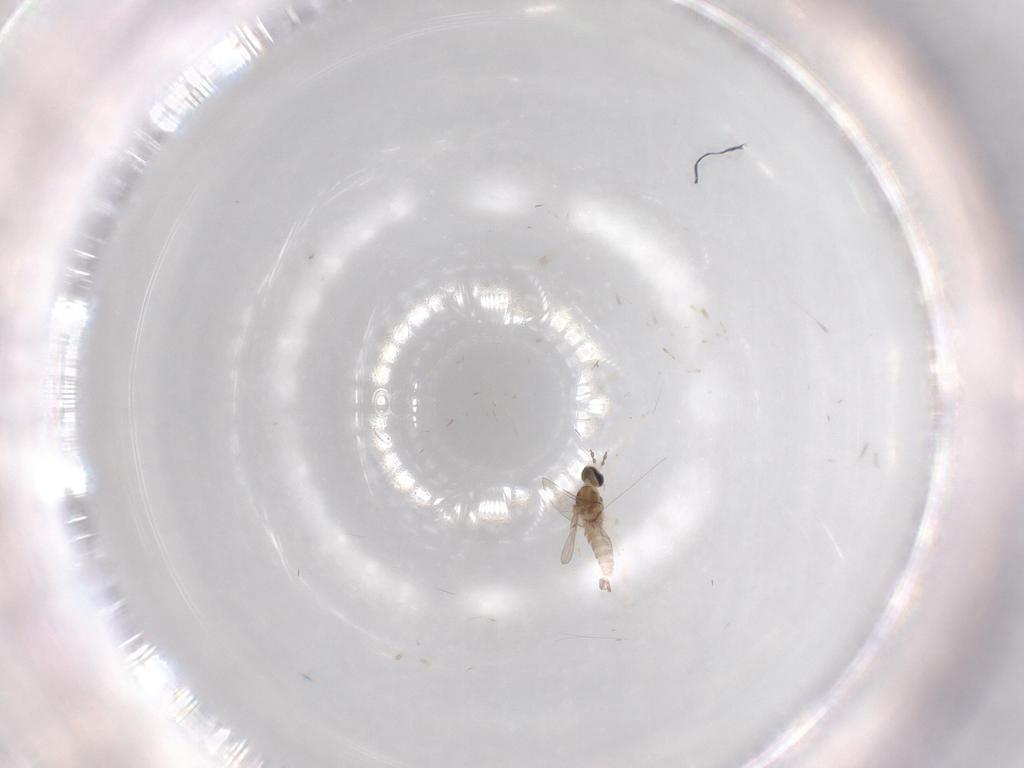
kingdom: Animalia
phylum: Arthropoda
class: Insecta
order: Diptera
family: Cecidomyiidae
